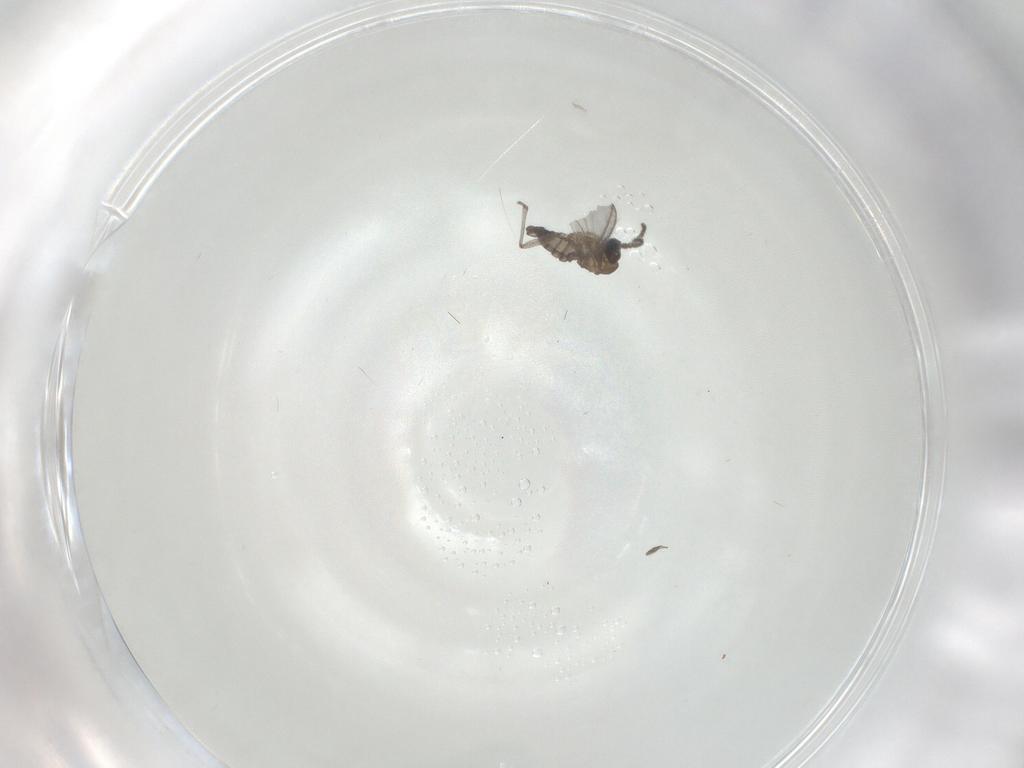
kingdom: Animalia
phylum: Arthropoda
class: Insecta
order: Diptera
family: Sciaridae
